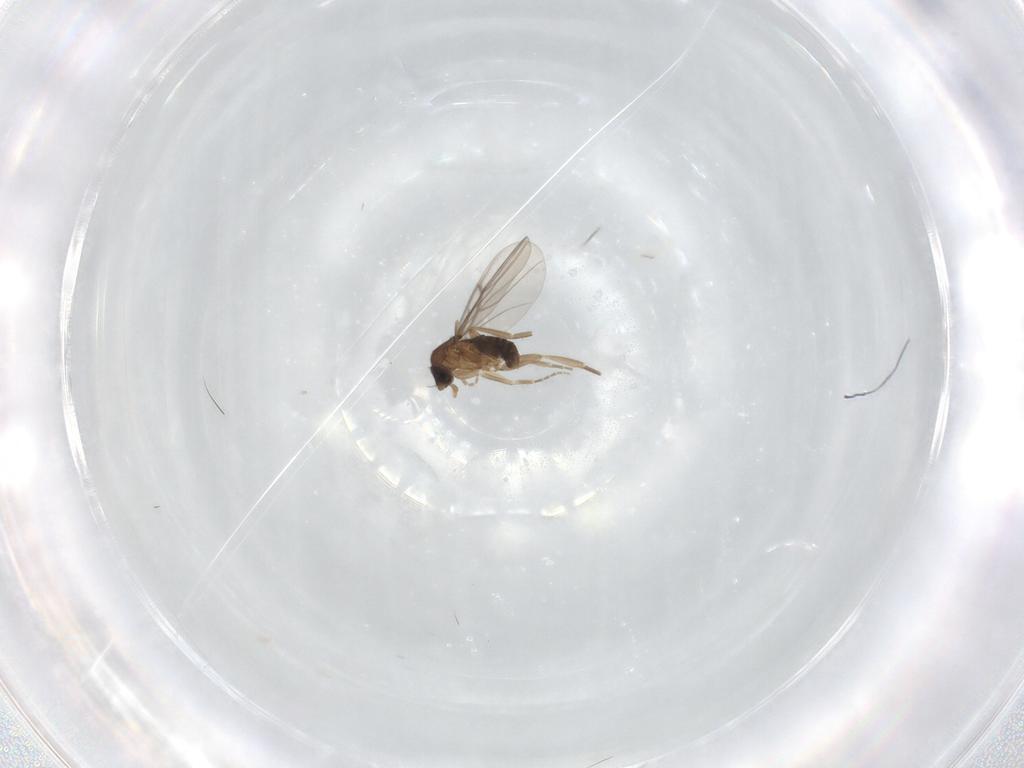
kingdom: Animalia
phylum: Arthropoda
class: Insecta
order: Diptera
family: Phoridae
